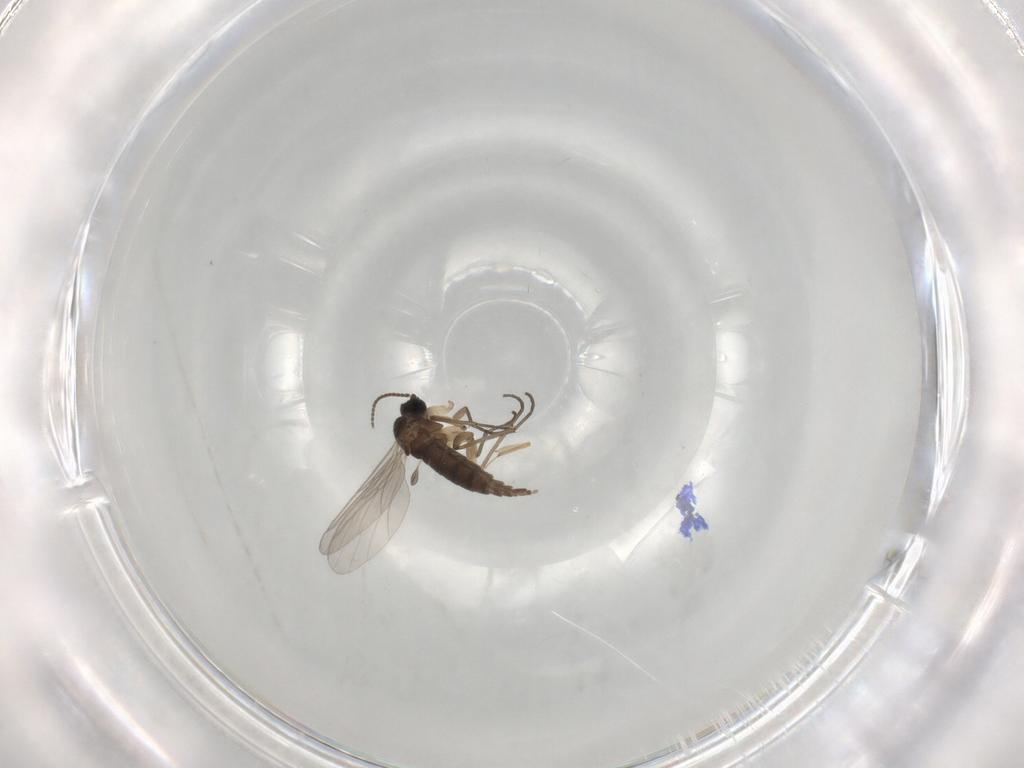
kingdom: Animalia
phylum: Arthropoda
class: Insecta
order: Diptera
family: Sciaridae
